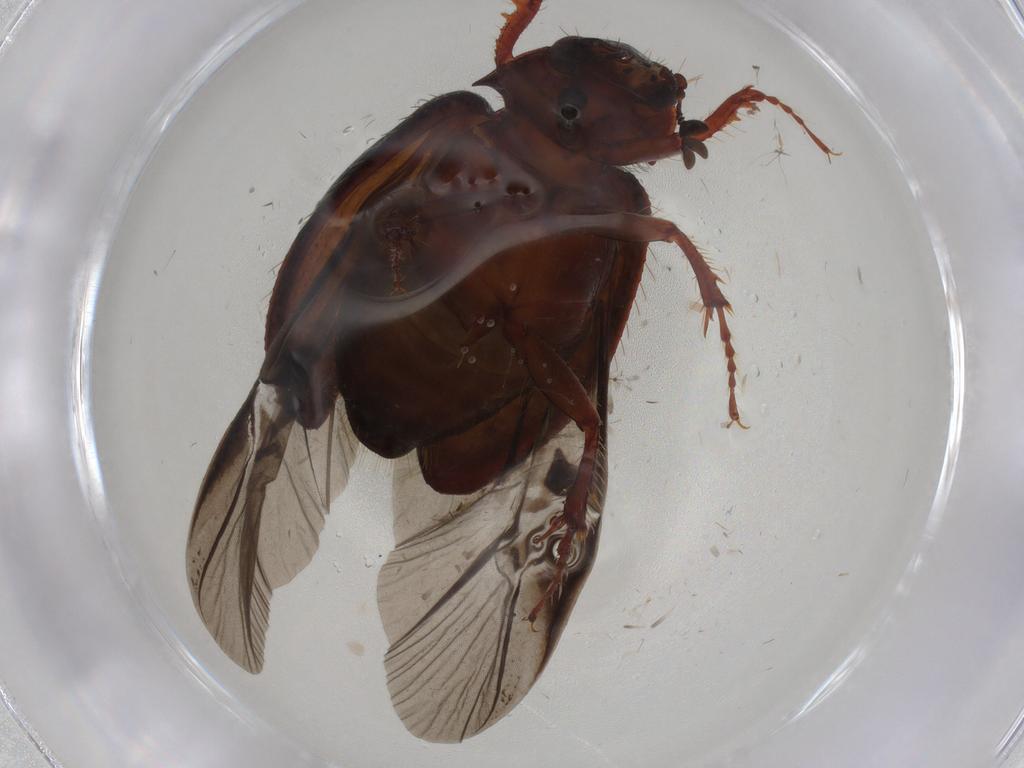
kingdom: Animalia
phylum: Arthropoda
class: Insecta
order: Coleoptera
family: Hybosoridae
